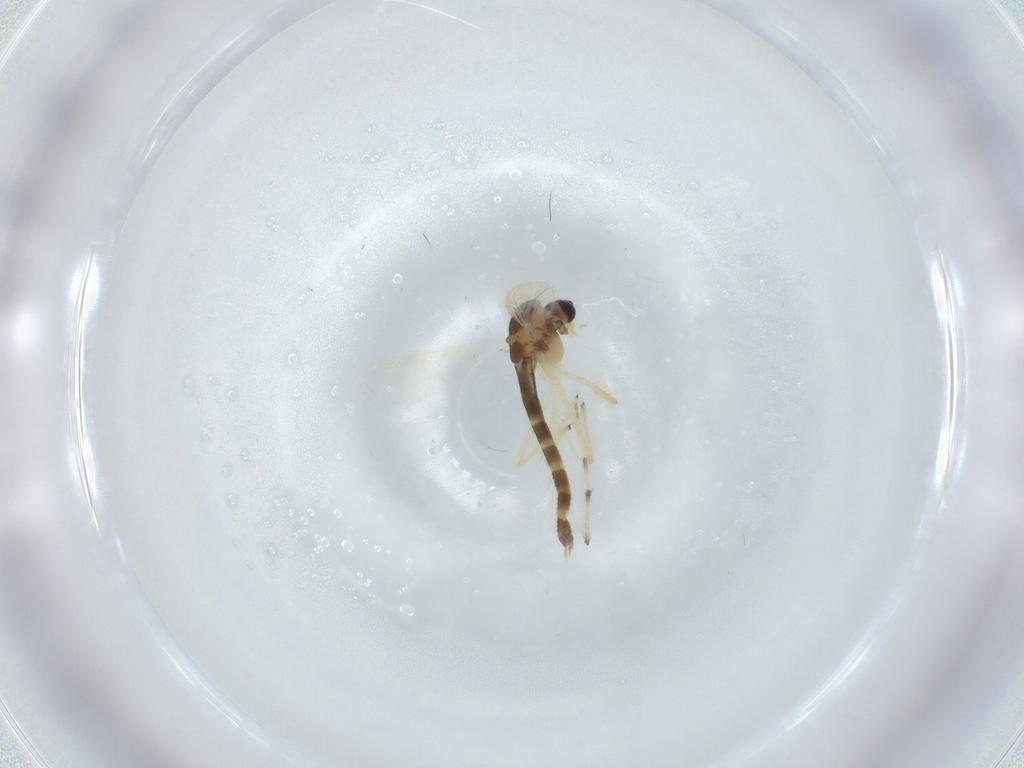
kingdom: Animalia
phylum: Arthropoda
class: Insecta
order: Diptera
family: Chironomidae
